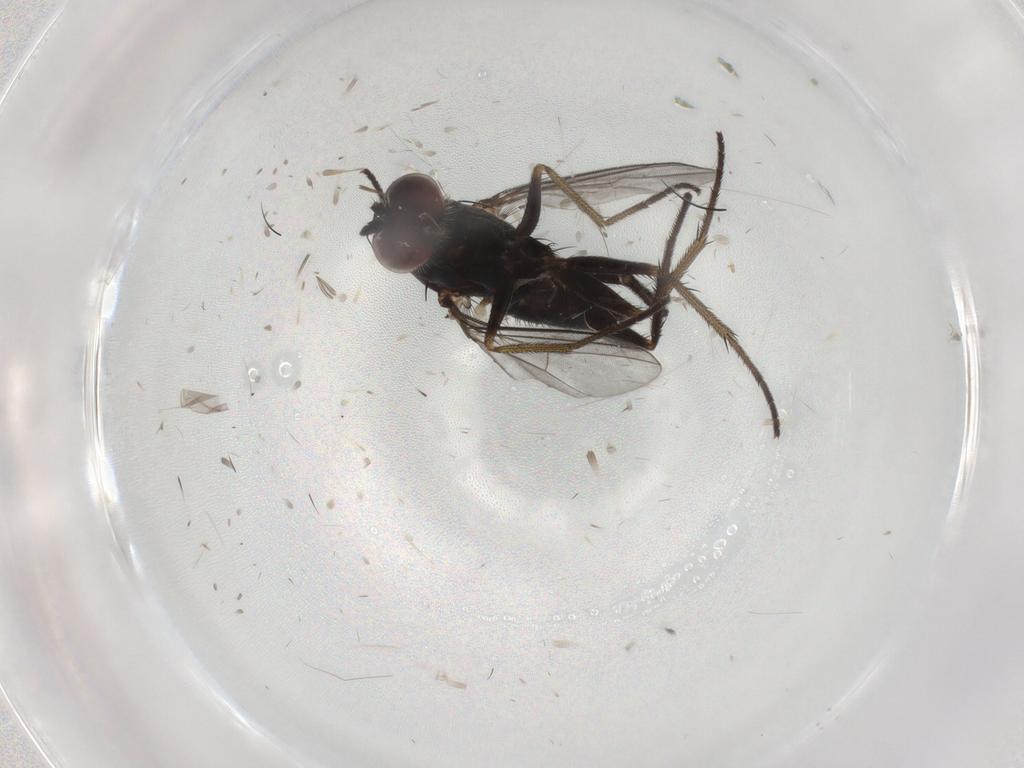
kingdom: Animalia
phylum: Arthropoda
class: Insecta
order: Diptera
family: Dolichopodidae
